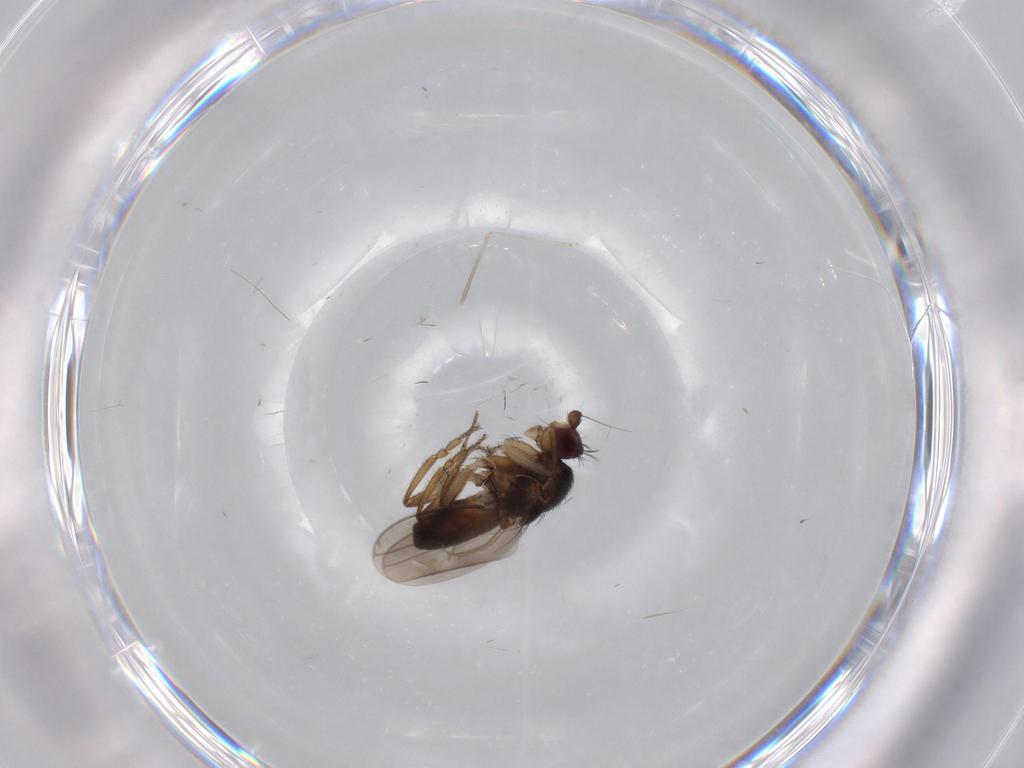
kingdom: Animalia
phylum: Arthropoda
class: Insecta
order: Diptera
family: Sphaeroceridae
